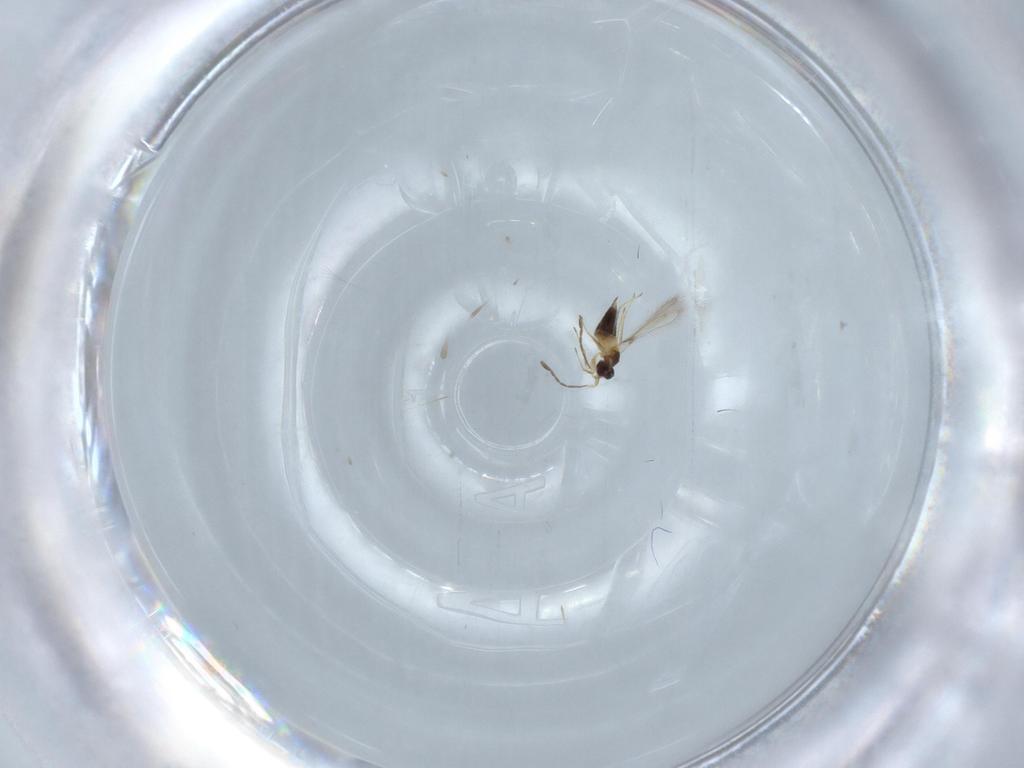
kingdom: Animalia
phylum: Arthropoda
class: Insecta
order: Hymenoptera
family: Mymaridae
